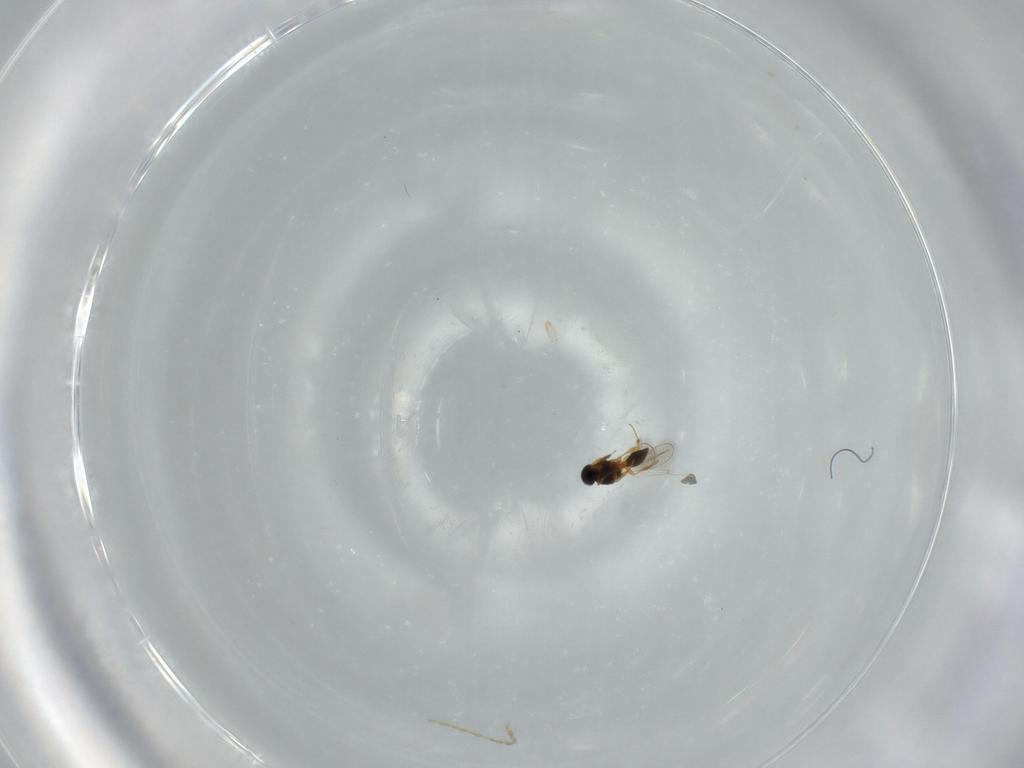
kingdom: Animalia
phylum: Arthropoda
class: Insecta
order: Hymenoptera
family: Platygastridae
